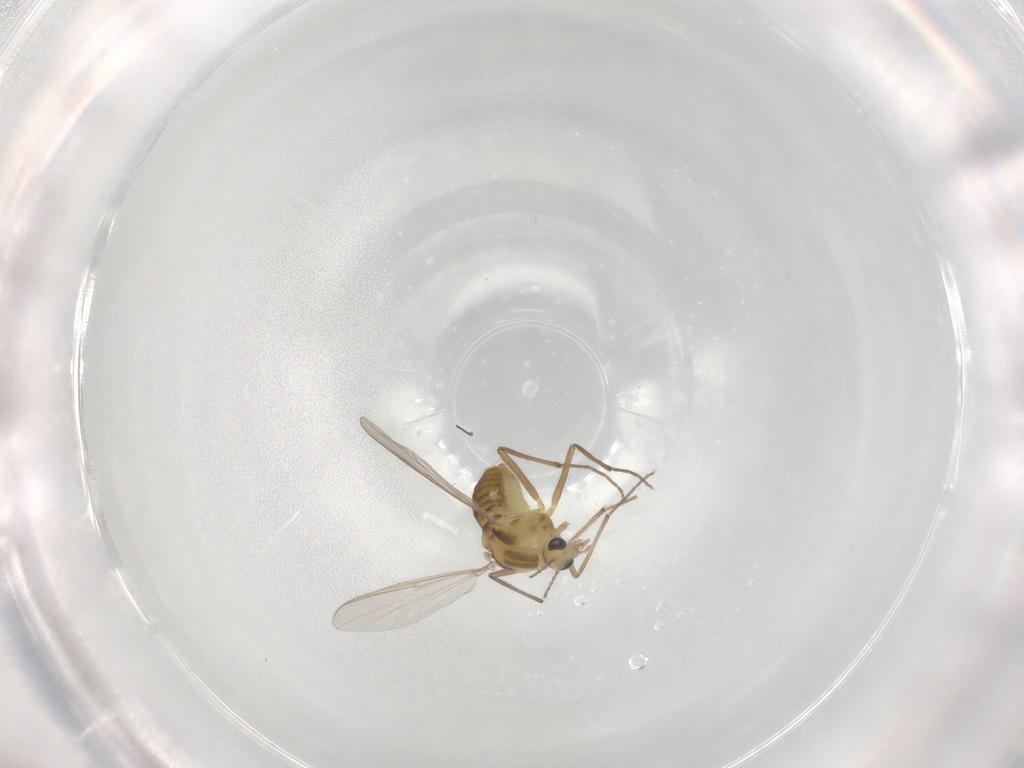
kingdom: Animalia
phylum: Arthropoda
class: Insecta
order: Diptera
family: Chironomidae
